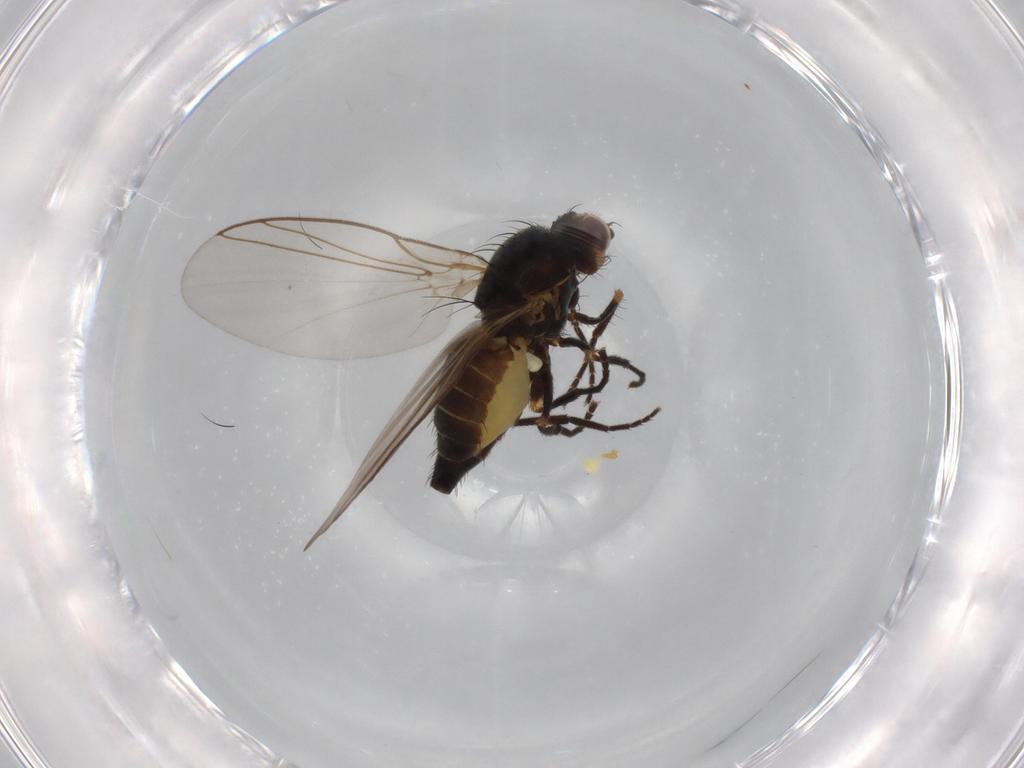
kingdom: Animalia
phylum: Arthropoda
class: Insecta
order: Diptera
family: Agromyzidae
